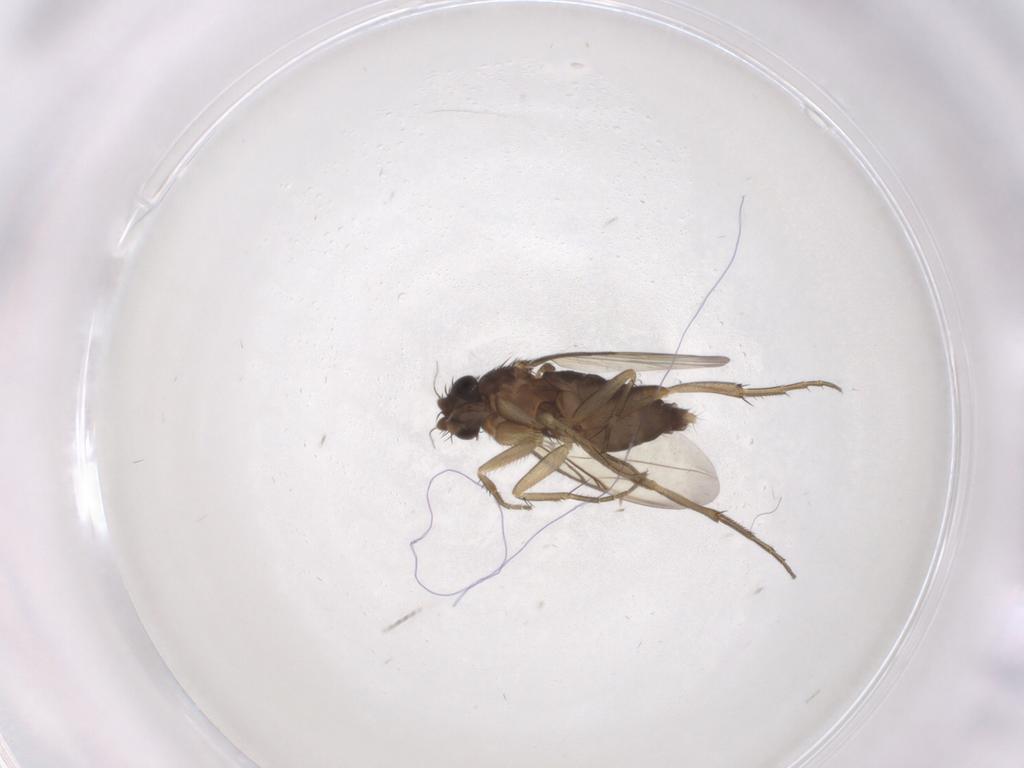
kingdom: Animalia
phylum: Arthropoda
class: Insecta
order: Diptera
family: Phoridae
